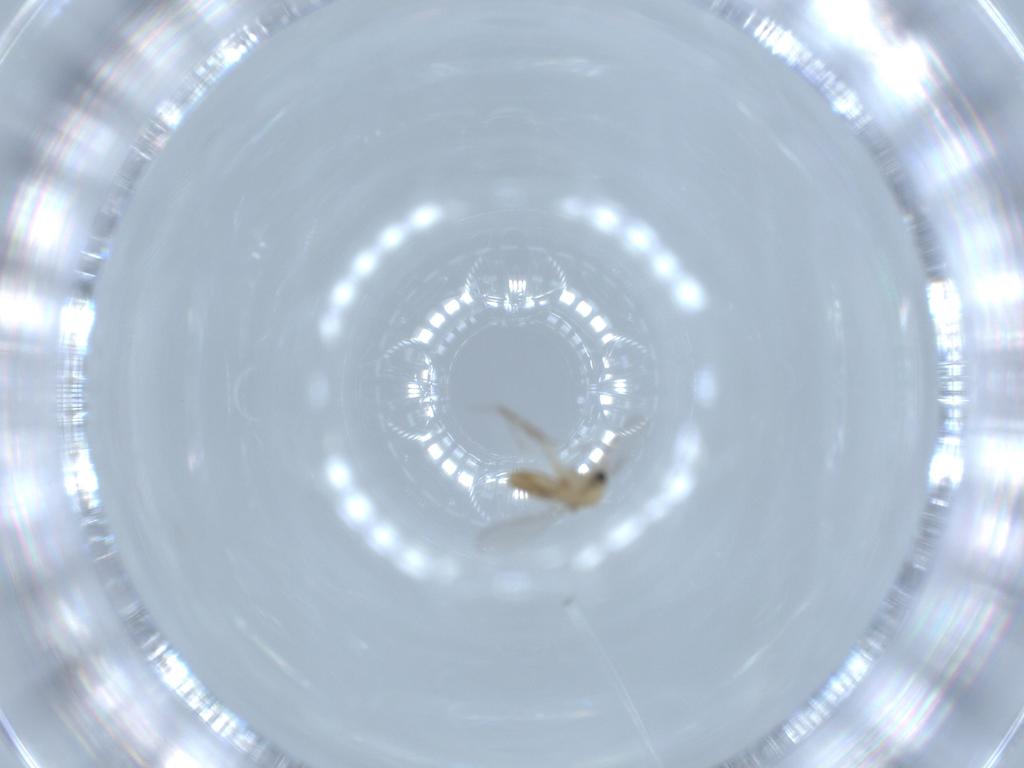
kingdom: Animalia
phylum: Arthropoda
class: Insecta
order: Diptera
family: Chironomidae
